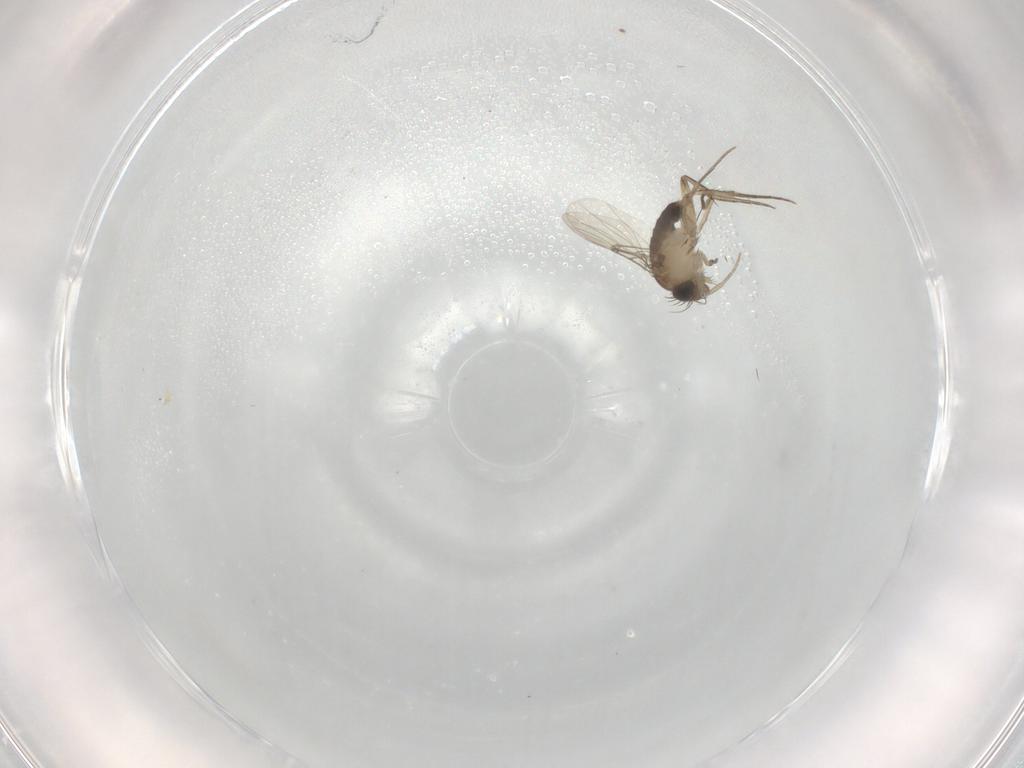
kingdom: Animalia
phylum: Arthropoda
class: Insecta
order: Diptera
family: Phoridae
